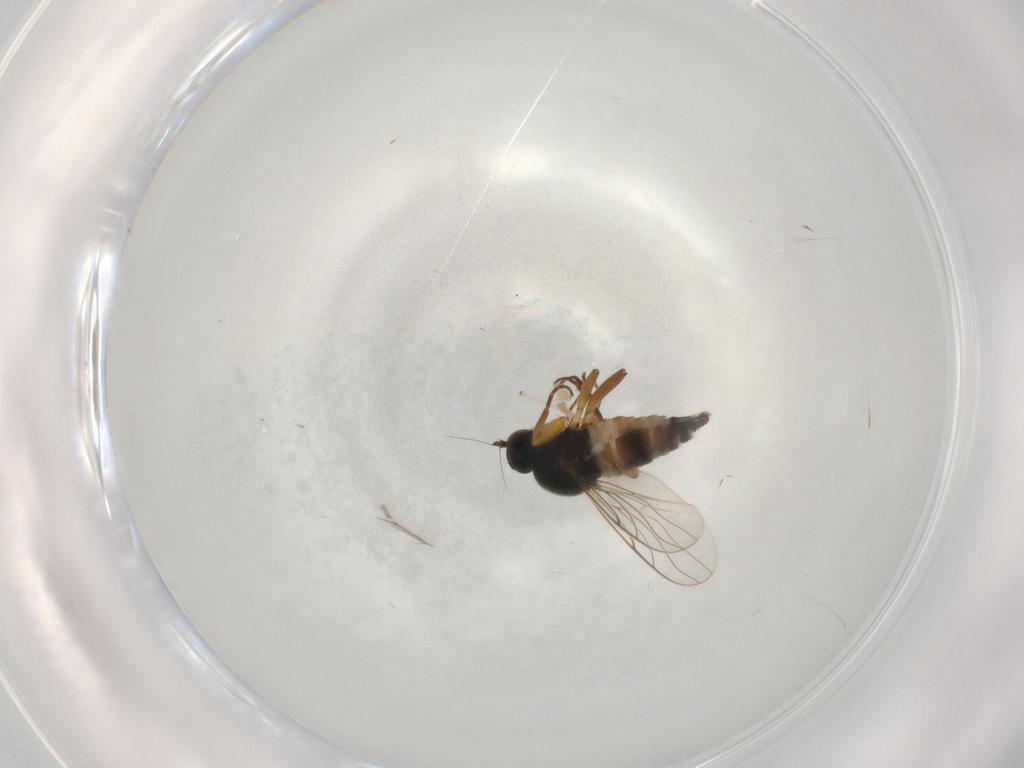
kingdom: Animalia
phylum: Arthropoda
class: Insecta
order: Diptera
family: Hybotidae
